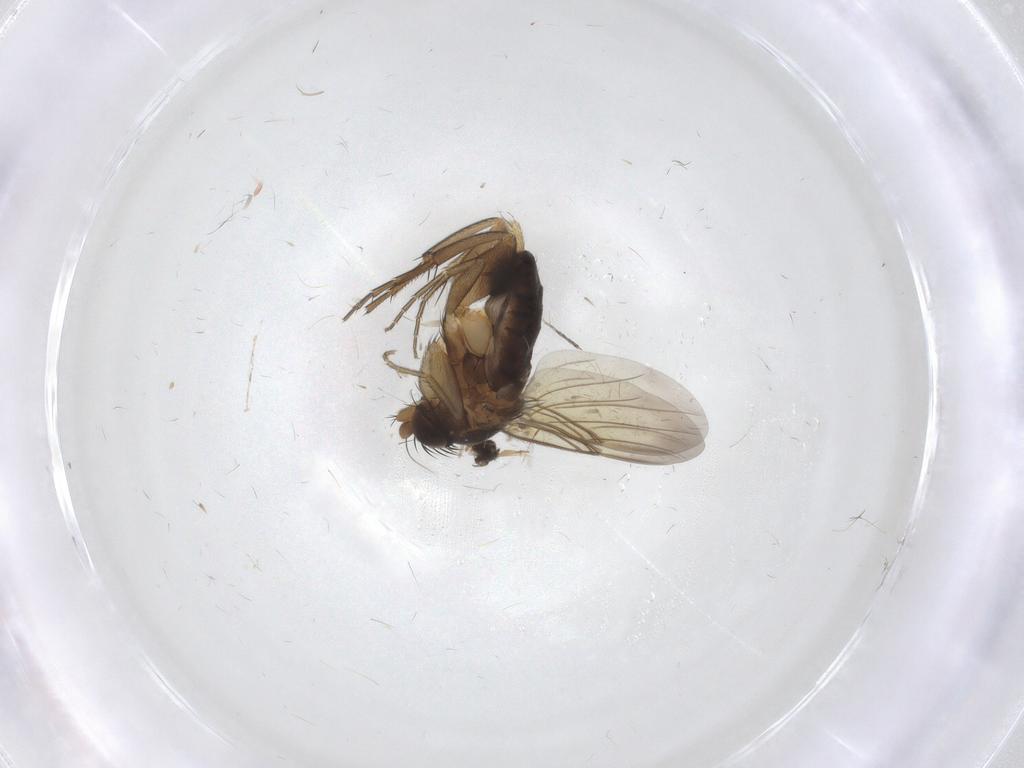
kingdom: Animalia
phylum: Arthropoda
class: Insecta
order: Diptera
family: Phoridae
